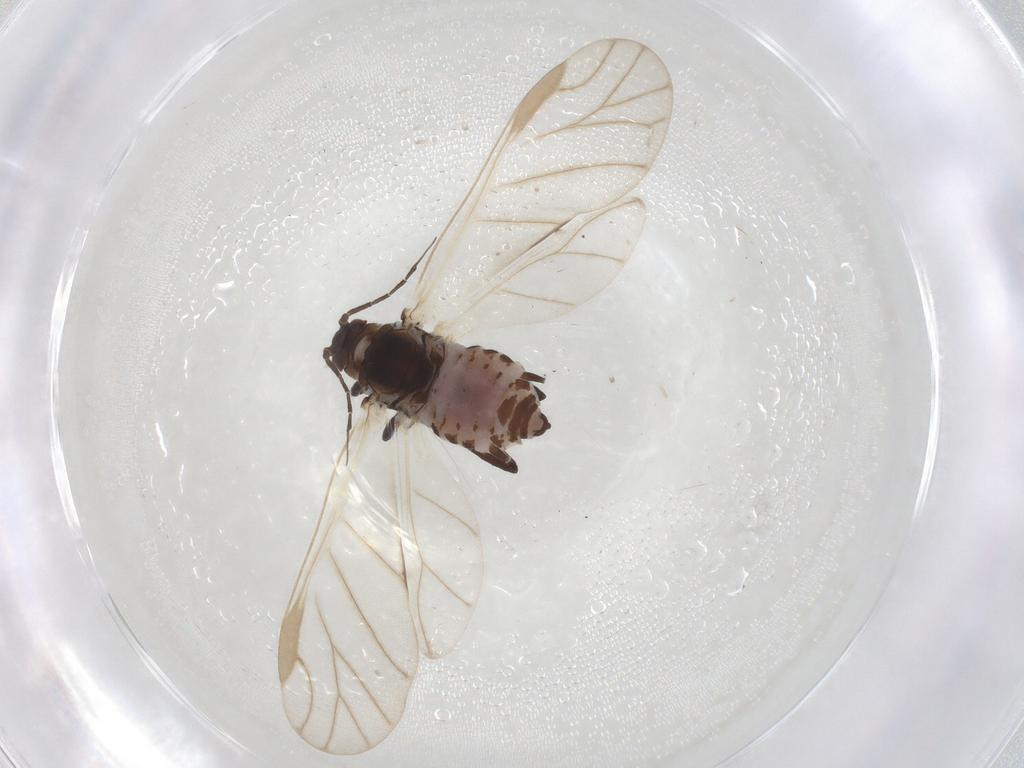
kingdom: Animalia
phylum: Arthropoda
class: Insecta
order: Hemiptera
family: Aphididae
